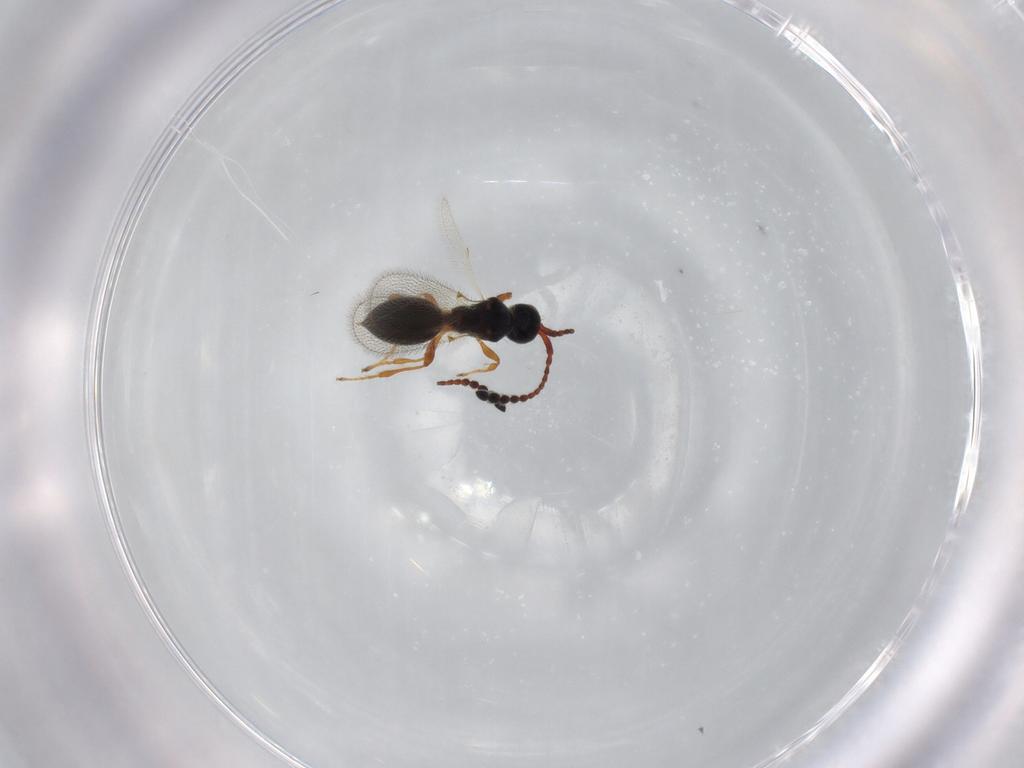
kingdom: Animalia
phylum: Arthropoda
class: Insecta
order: Hymenoptera
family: Diapriidae
